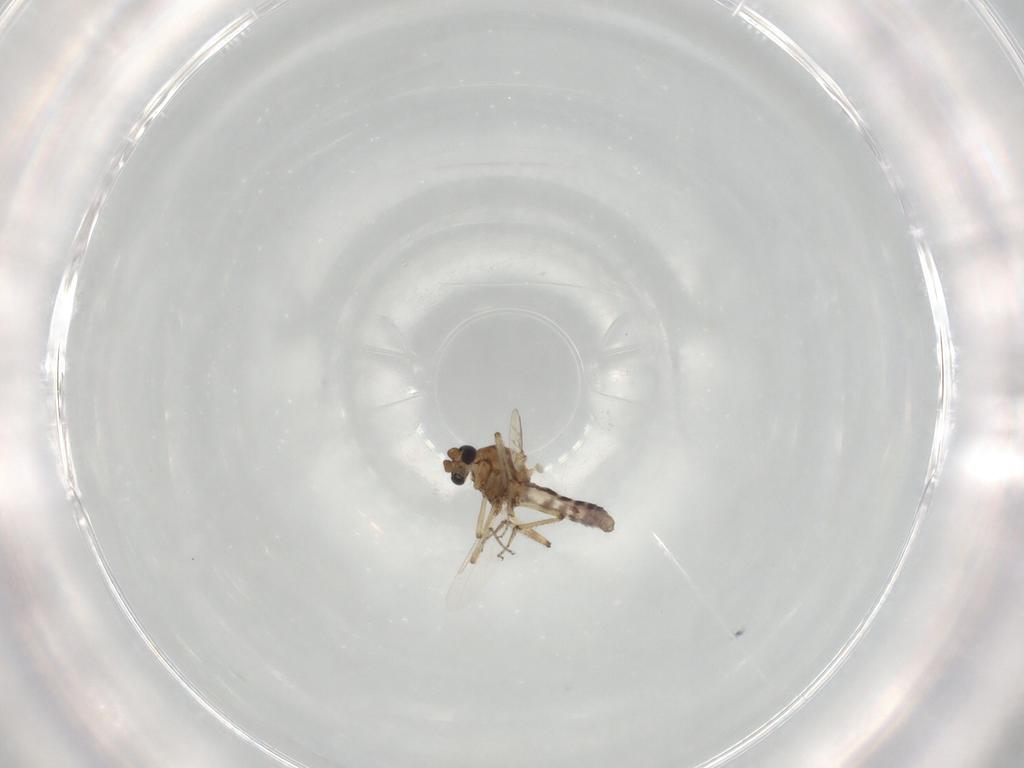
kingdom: Animalia
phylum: Arthropoda
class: Insecta
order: Diptera
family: Ceratopogonidae
